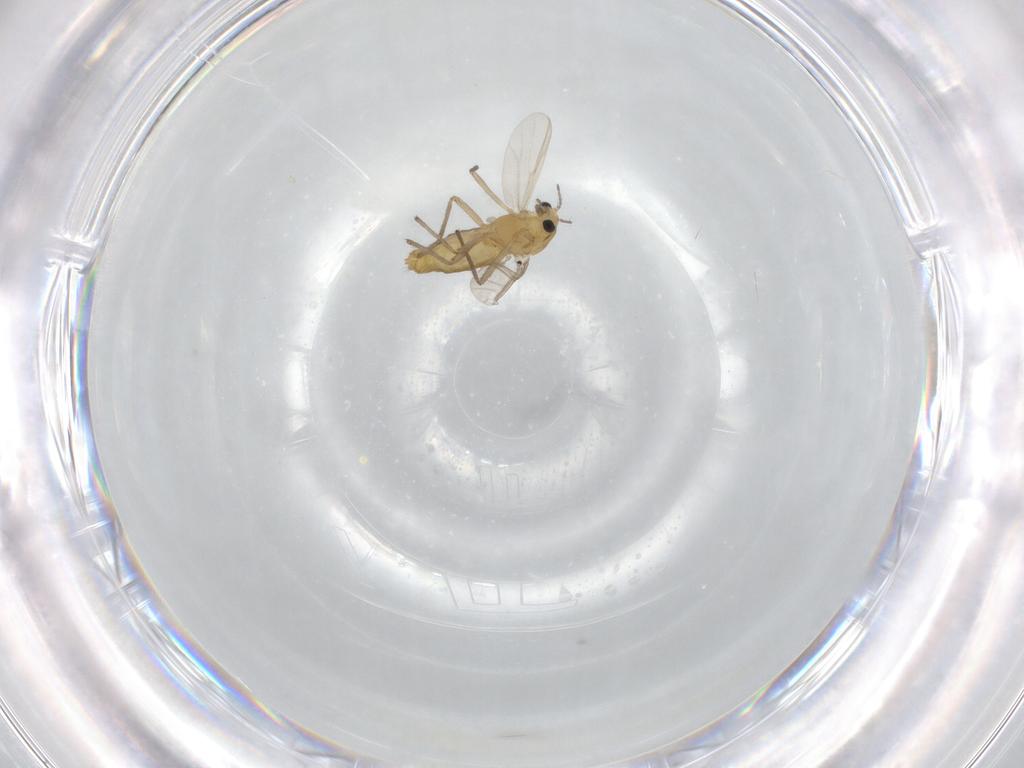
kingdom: Animalia
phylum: Arthropoda
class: Insecta
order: Diptera
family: Chironomidae
